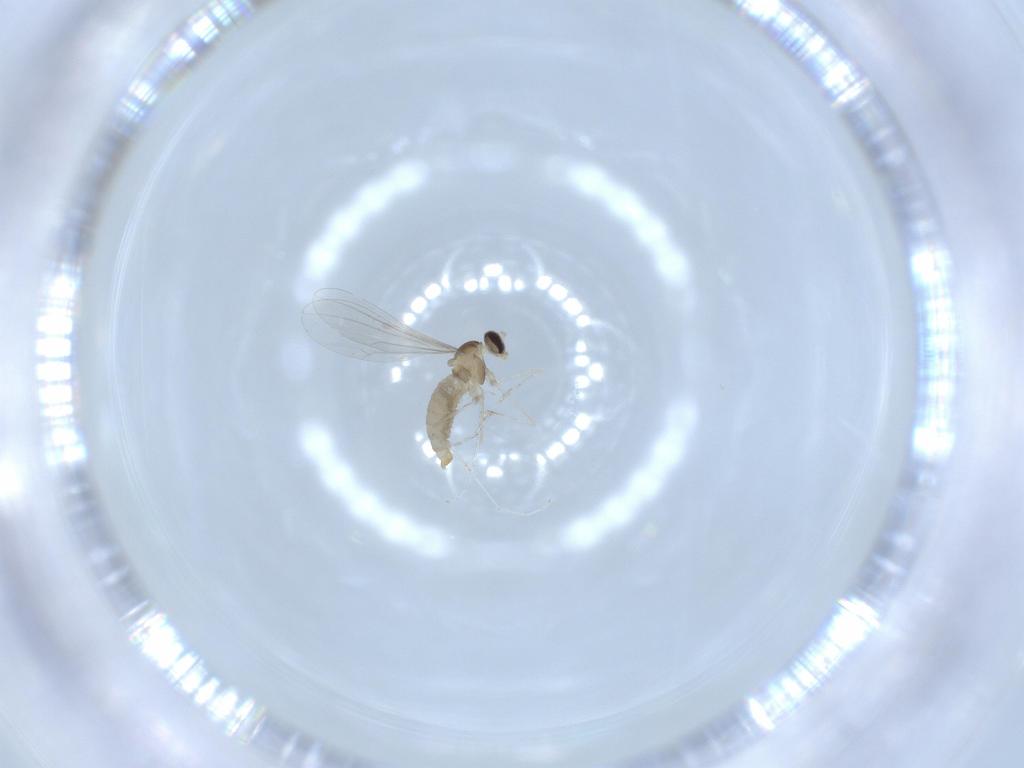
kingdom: Animalia
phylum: Arthropoda
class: Insecta
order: Diptera
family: Cecidomyiidae
